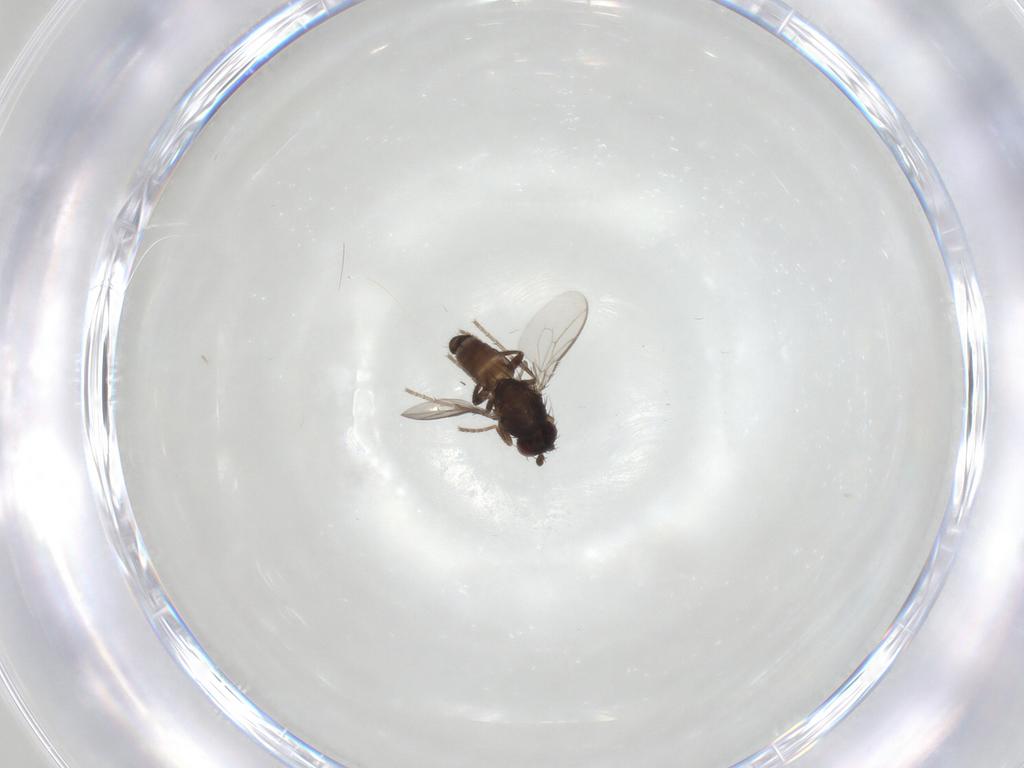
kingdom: Animalia
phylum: Arthropoda
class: Insecta
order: Diptera
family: Sphaeroceridae
